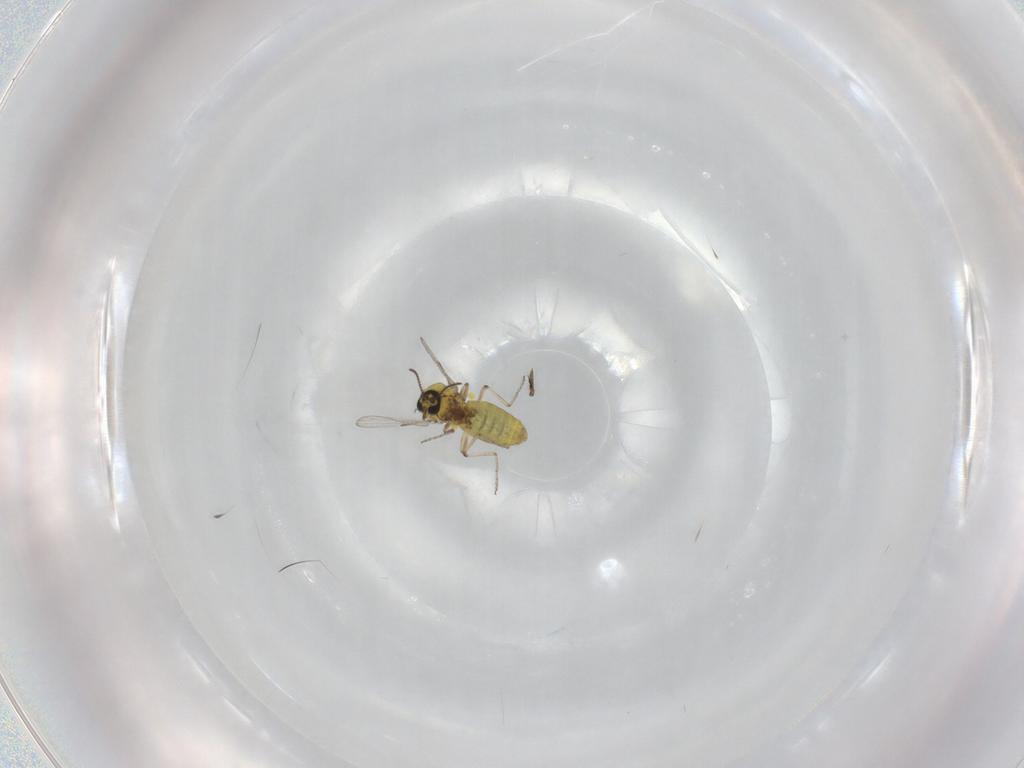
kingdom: Animalia
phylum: Arthropoda
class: Insecta
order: Diptera
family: Ceratopogonidae
